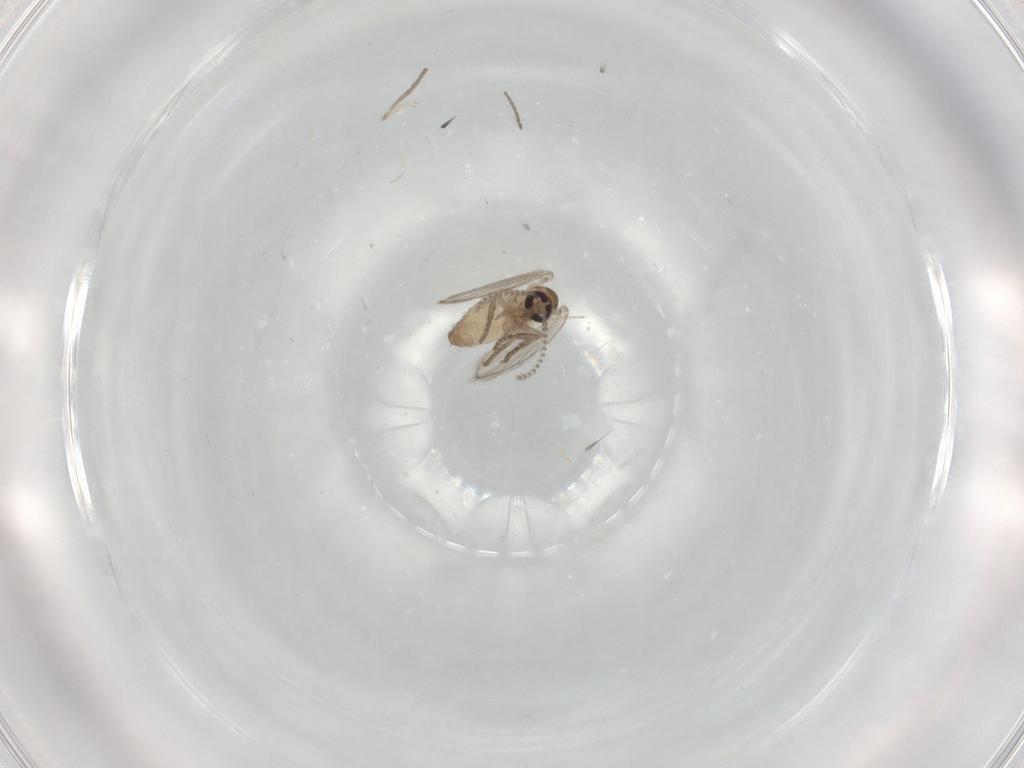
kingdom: Animalia
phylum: Arthropoda
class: Insecta
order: Diptera
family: Psychodidae
